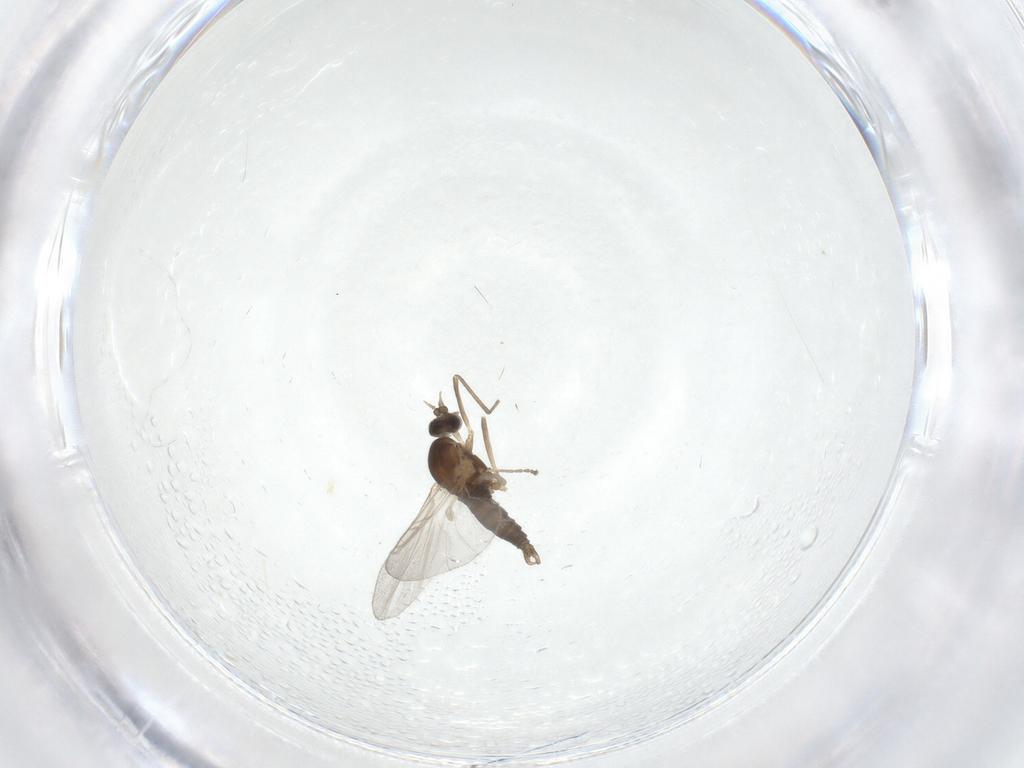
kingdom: Animalia
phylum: Arthropoda
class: Insecta
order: Diptera
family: Cecidomyiidae
